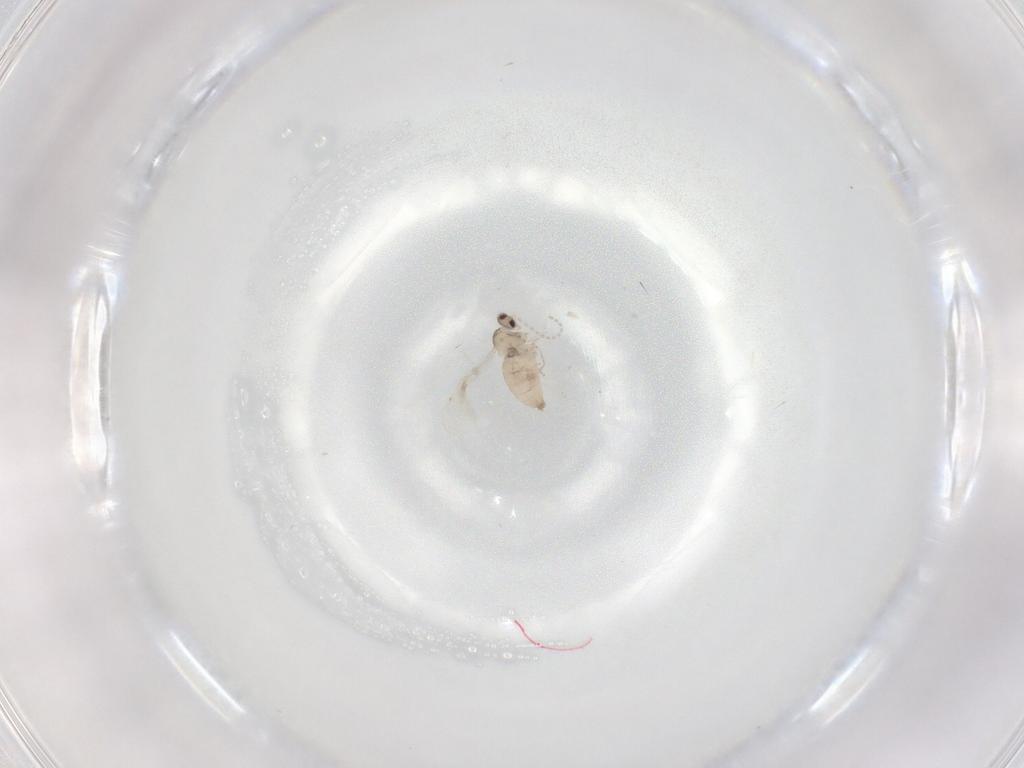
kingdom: Animalia
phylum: Arthropoda
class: Insecta
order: Diptera
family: Cecidomyiidae
